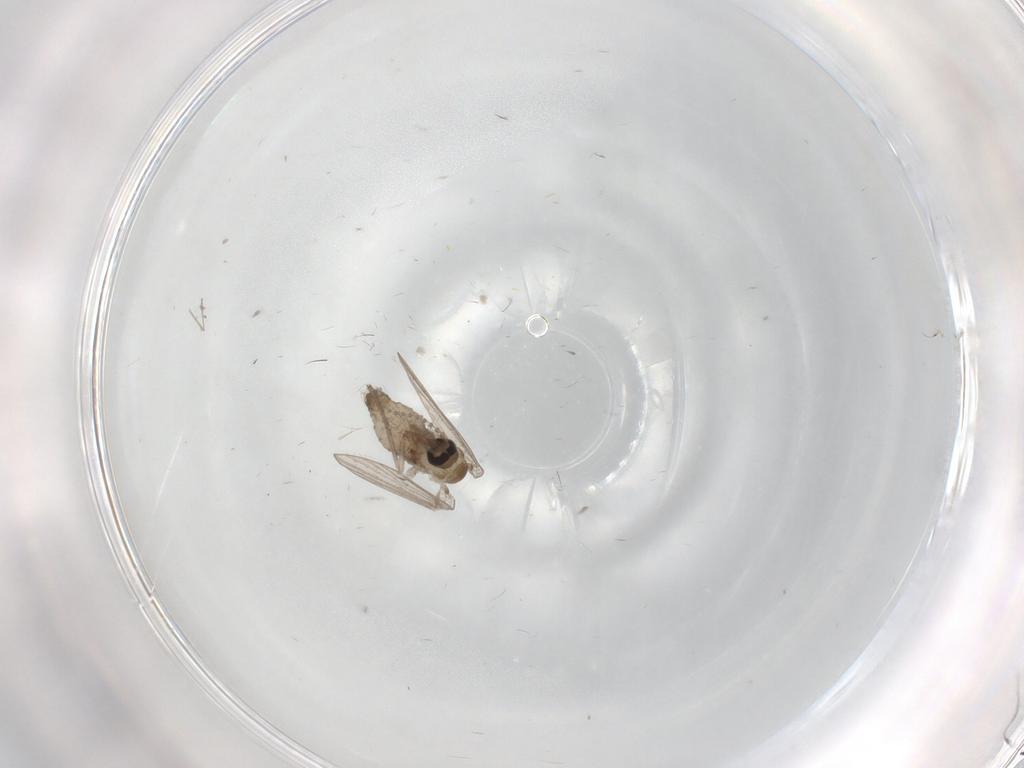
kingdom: Animalia
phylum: Arthropoda
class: Insecta
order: Diptera
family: Psychodidae
